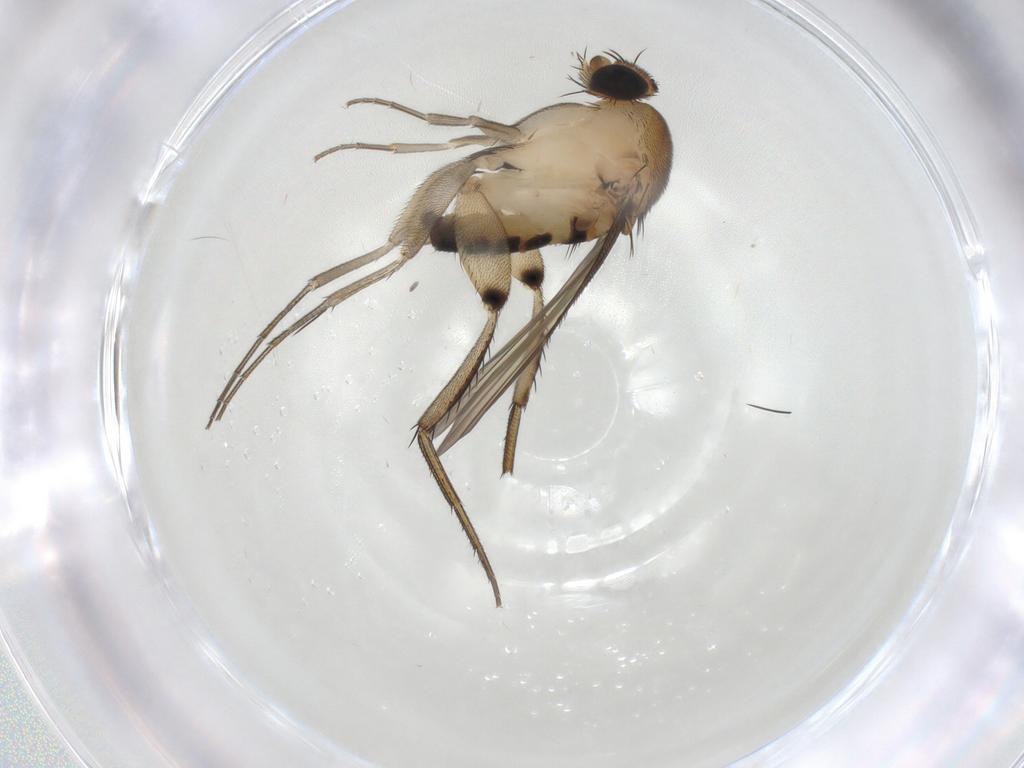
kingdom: Animalia
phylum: Arthropoda
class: Insecta
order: Diptera
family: Phoridae
